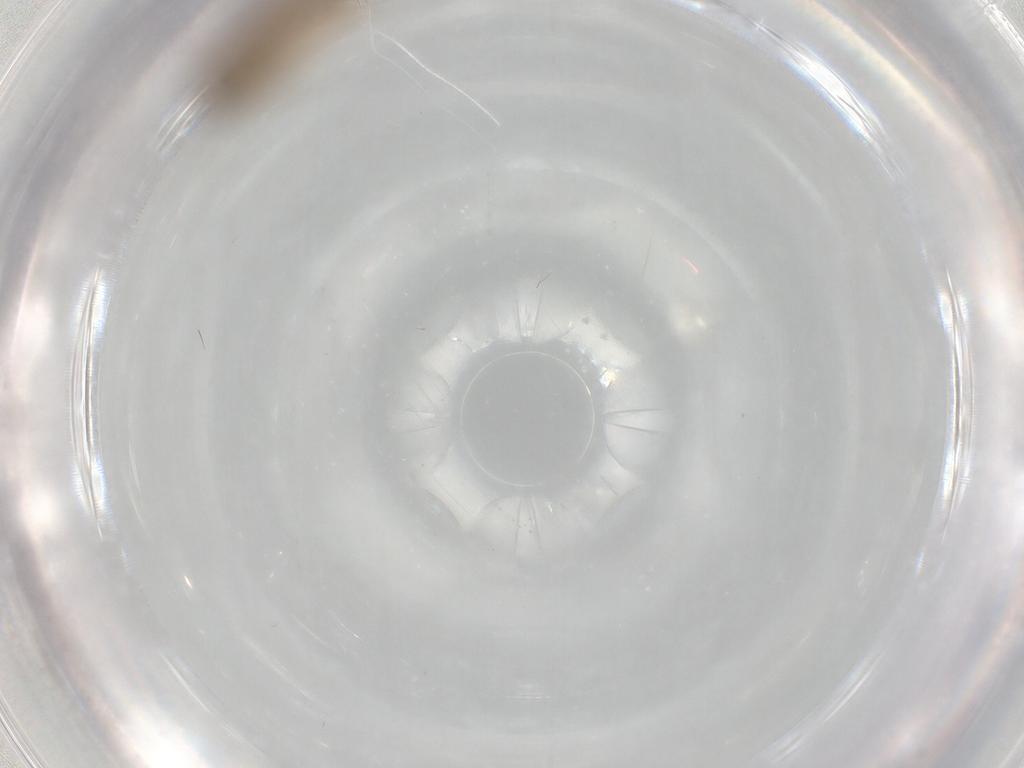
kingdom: Animalia
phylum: Arthropoda
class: Insecta
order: Diptera
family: Chironomidae
